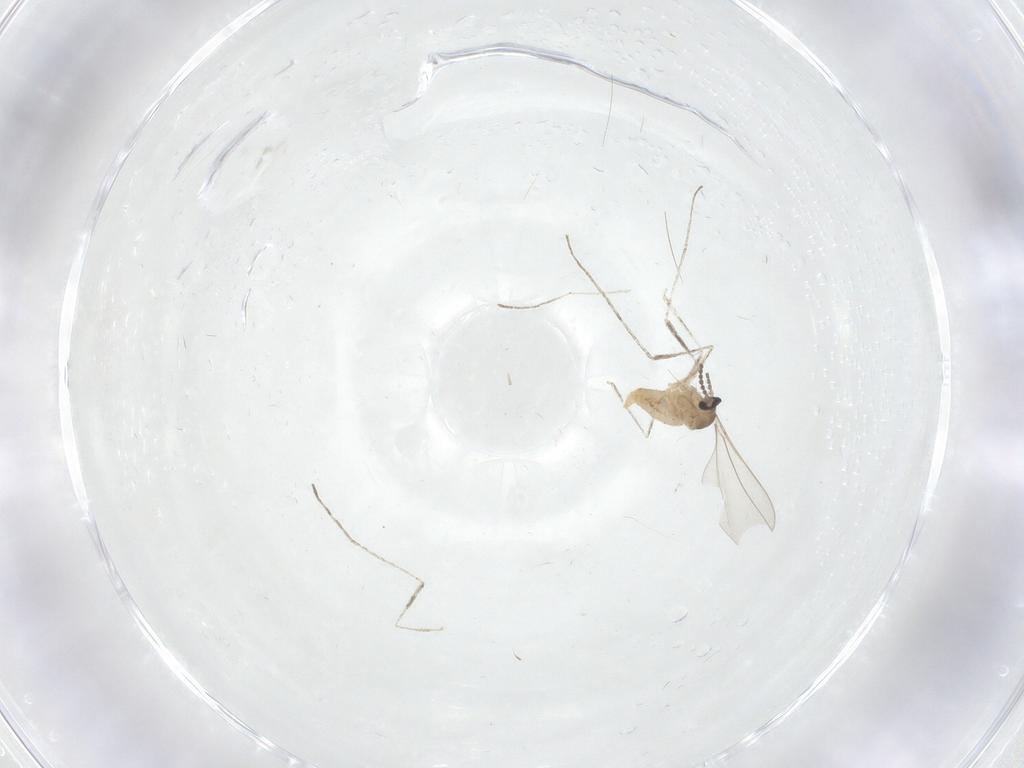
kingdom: Animalia
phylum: Arthropoda
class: Insecta
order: Diptera
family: Cecidomyiidae
